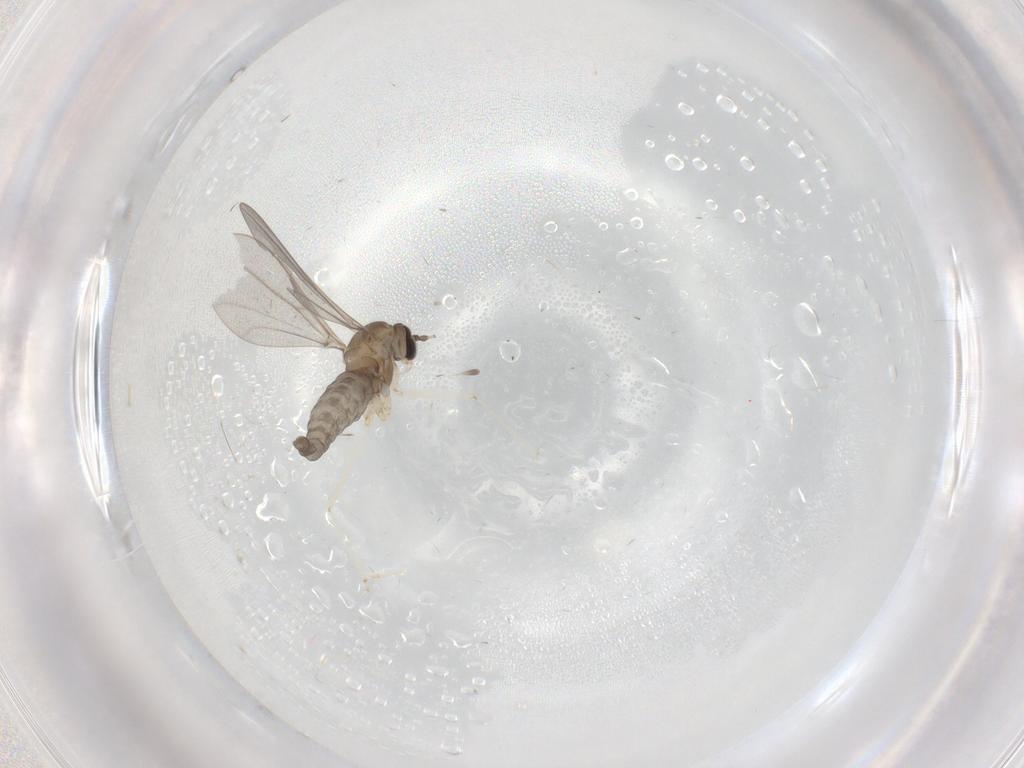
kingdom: Animalia
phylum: Arthropoda
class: Insecta
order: Diptera
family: Cecidomyiidae
